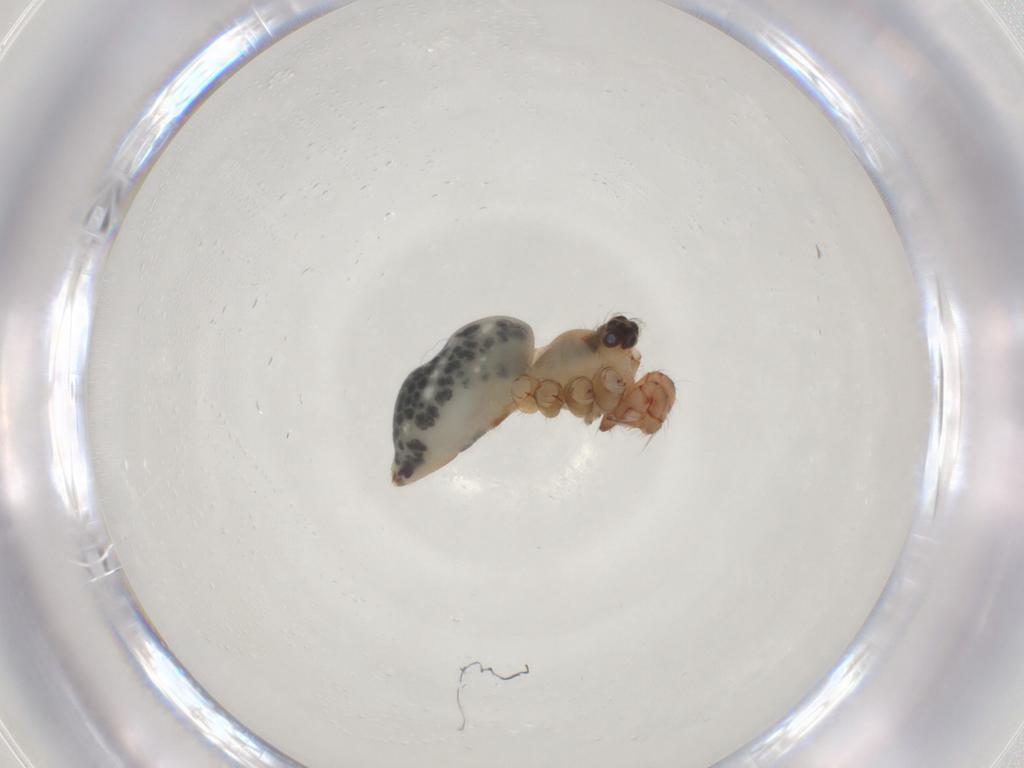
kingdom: Animalia
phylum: Arthropoda
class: Arachnida
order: Araneae
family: Pholcidae
